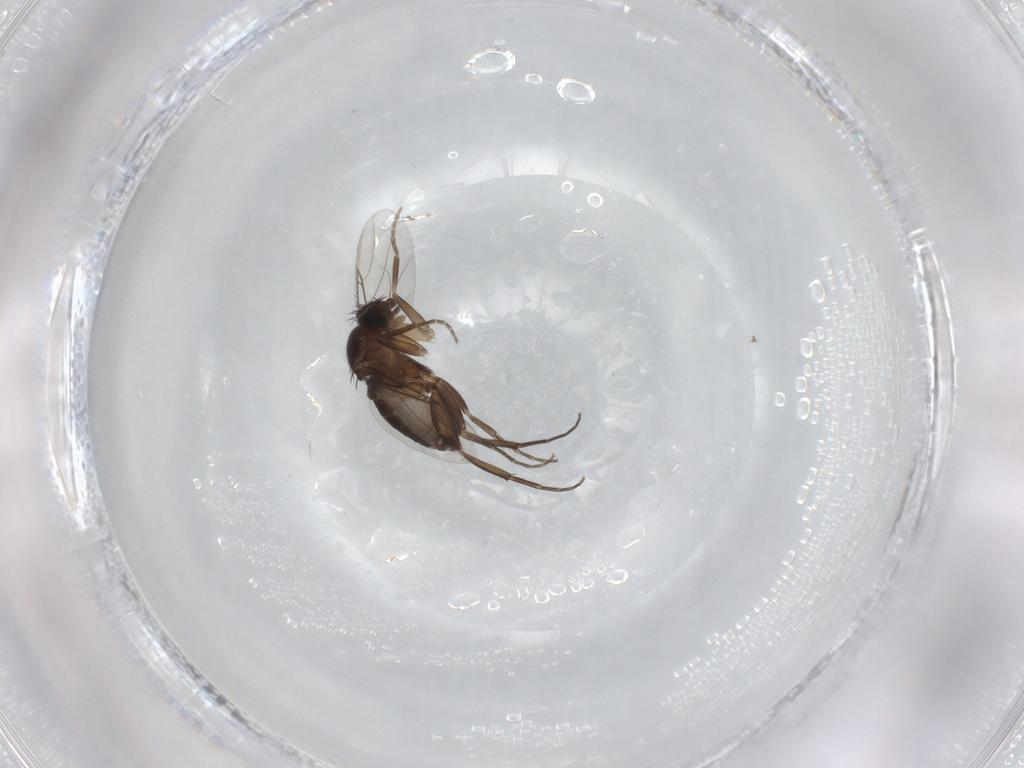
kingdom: Animalia
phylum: Arthropoda
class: Insecta
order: Diptera
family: Phoridae
